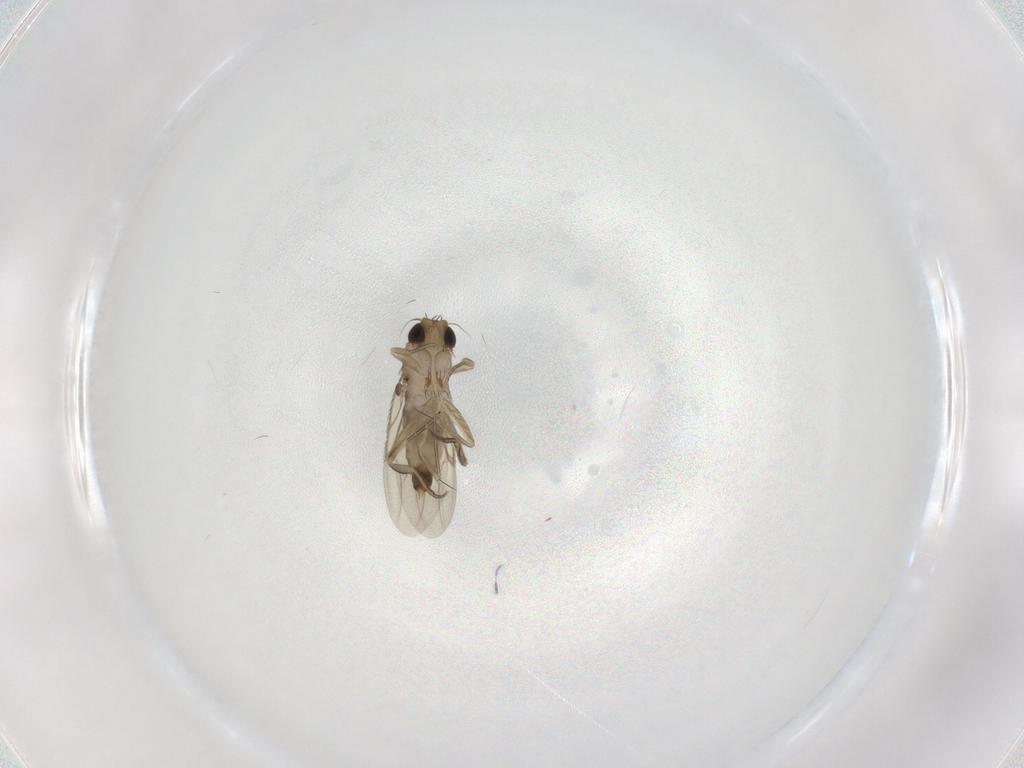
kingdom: Animalia
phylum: Arthropoda
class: Insecta
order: Diptera
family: Phoridae
